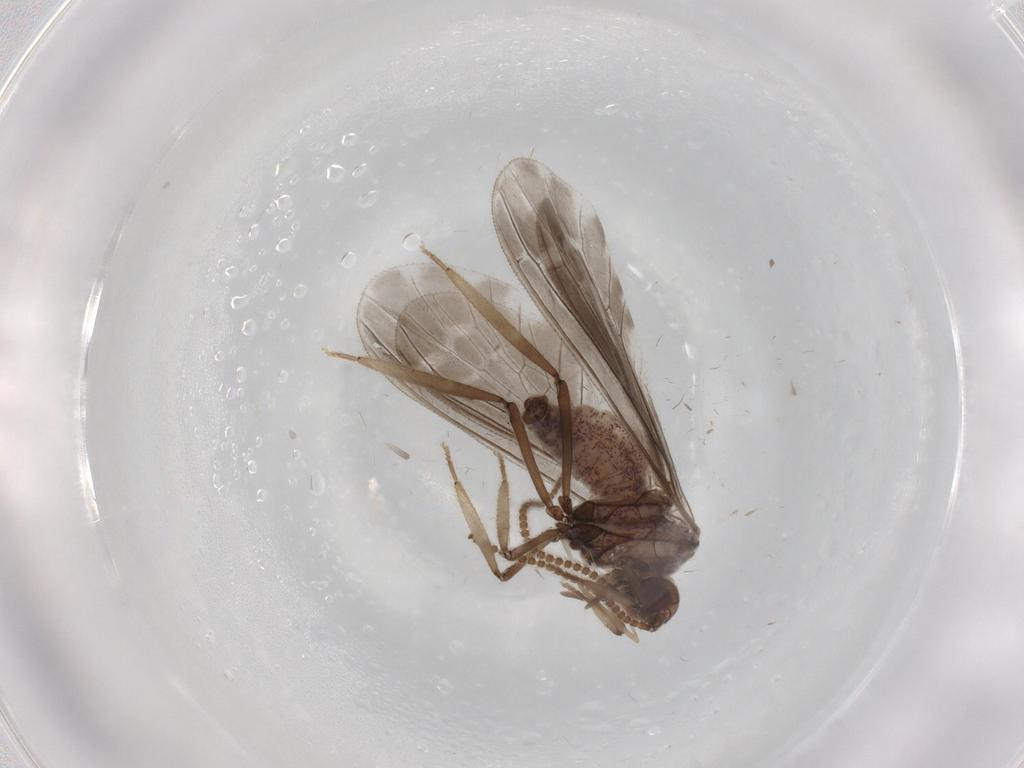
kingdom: Animalia
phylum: Arthropoda
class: Insecta
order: Neuroptera
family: Coniopterygidae
